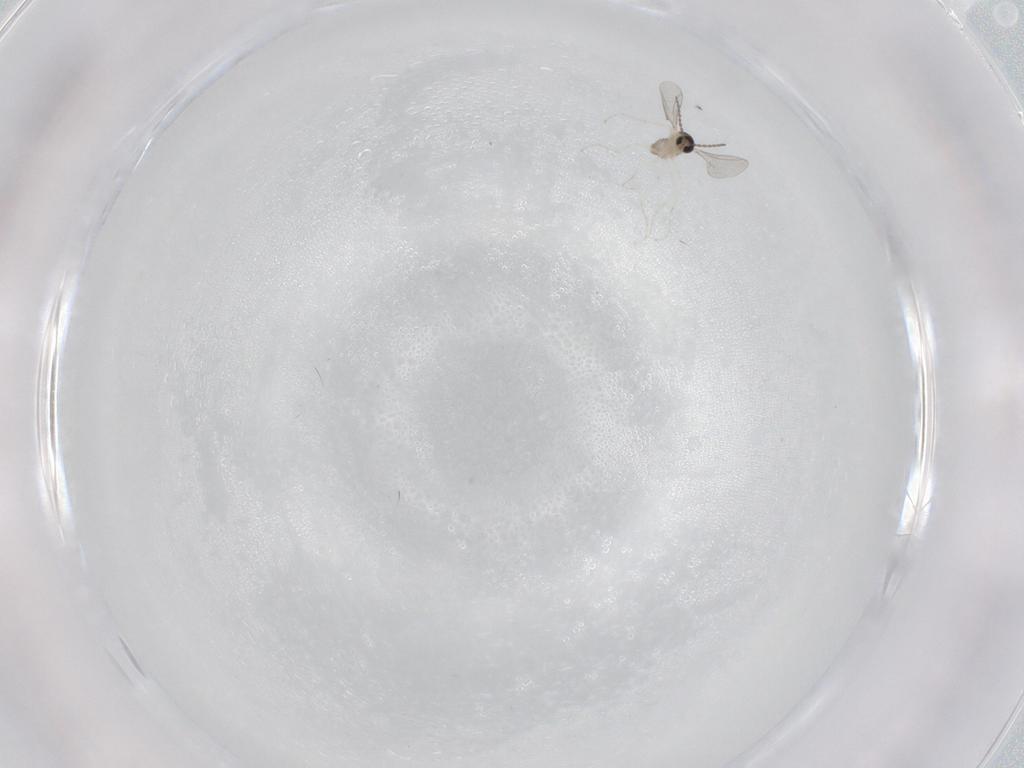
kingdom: Animalia
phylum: Arthropoda
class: Insecta
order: Diptera
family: Cecidomyiidae
